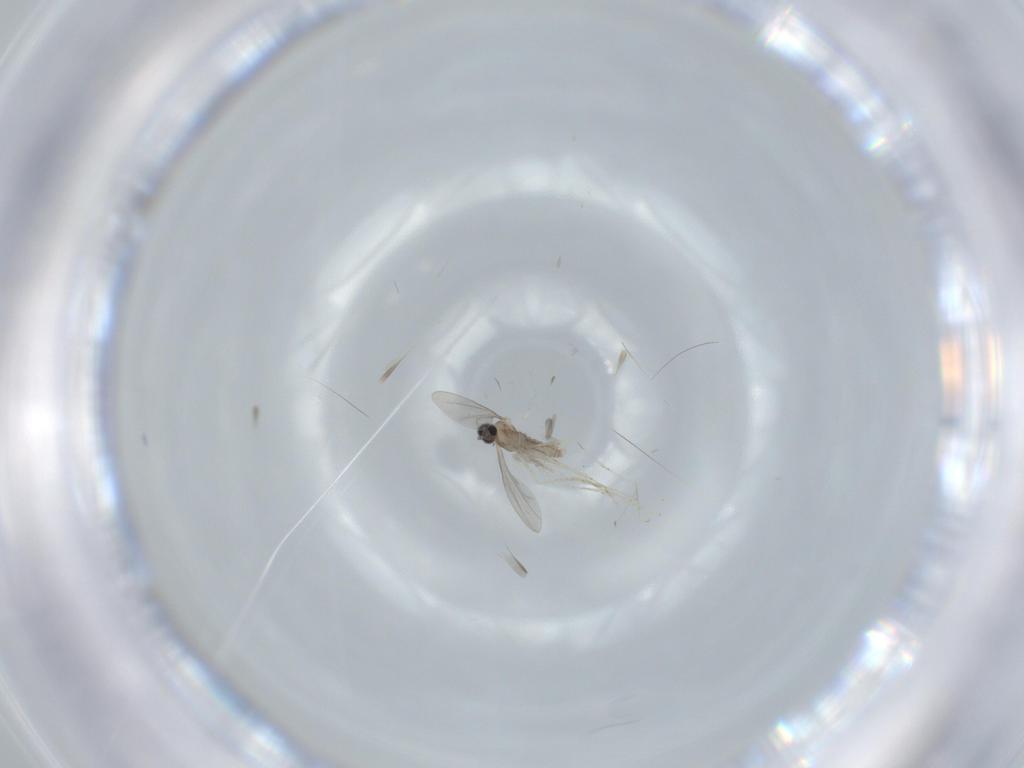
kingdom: Animalia
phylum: Arthropoda
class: Insecta
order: Diptera
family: Cecidomyiidae
